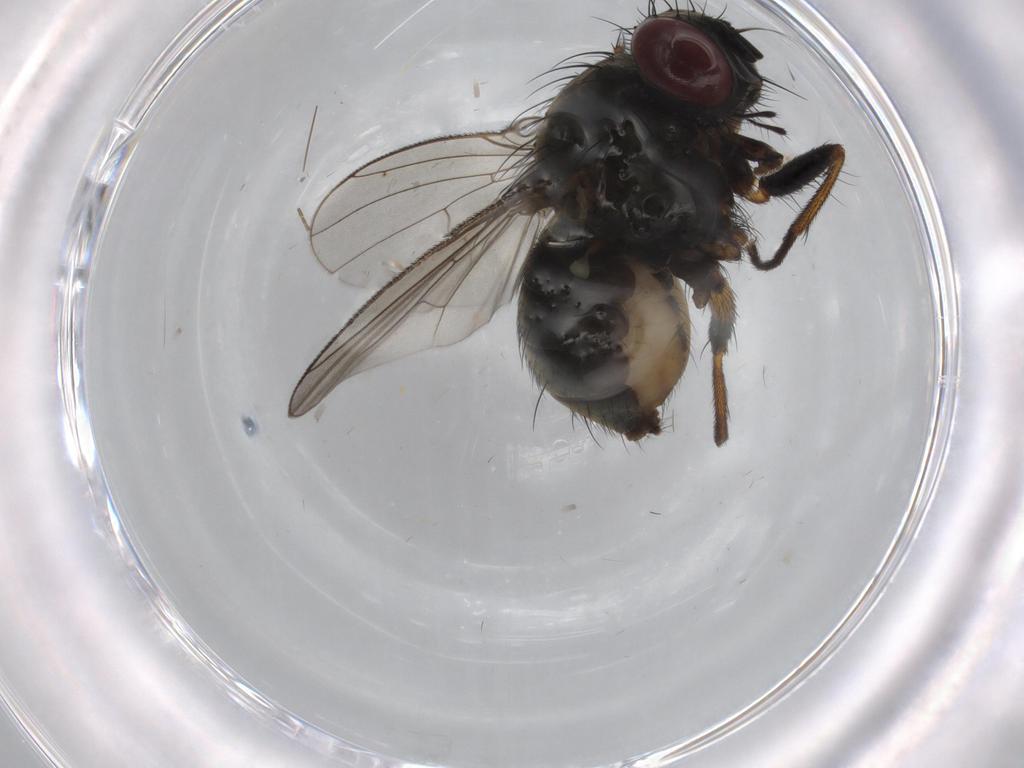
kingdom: Animalia
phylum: Arthropoda
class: Insecta
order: Diptera
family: Muscidae
